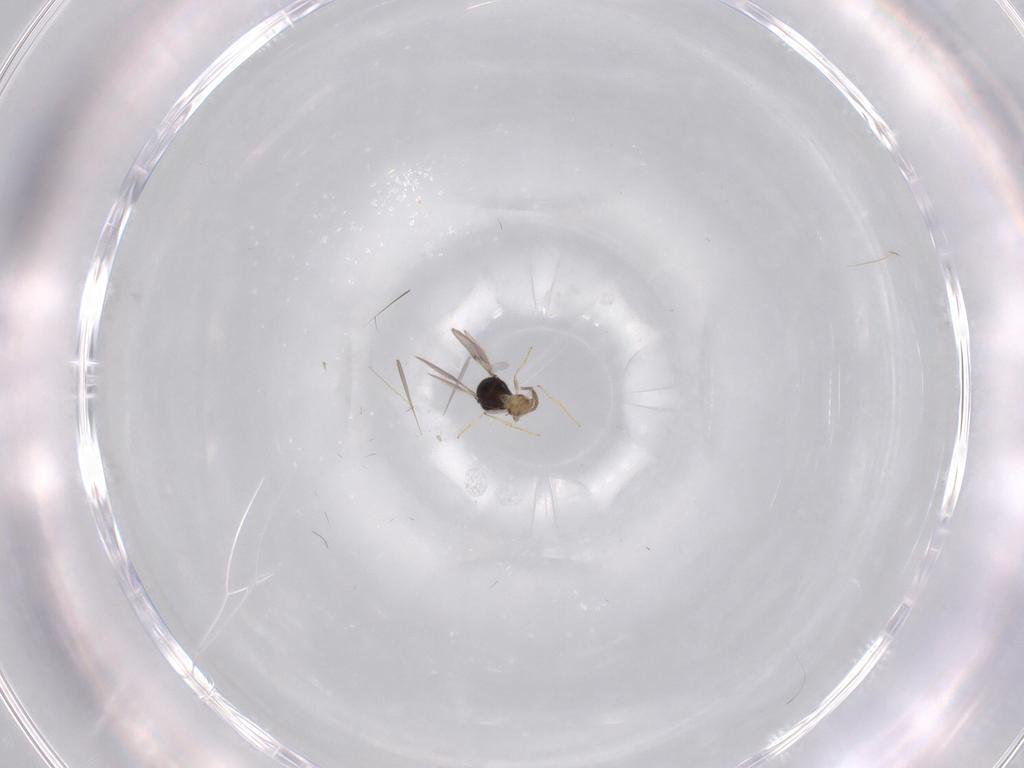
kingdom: Animalia
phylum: Arthropoda
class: Insecta
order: Hymenoptera
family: Scelionidae
